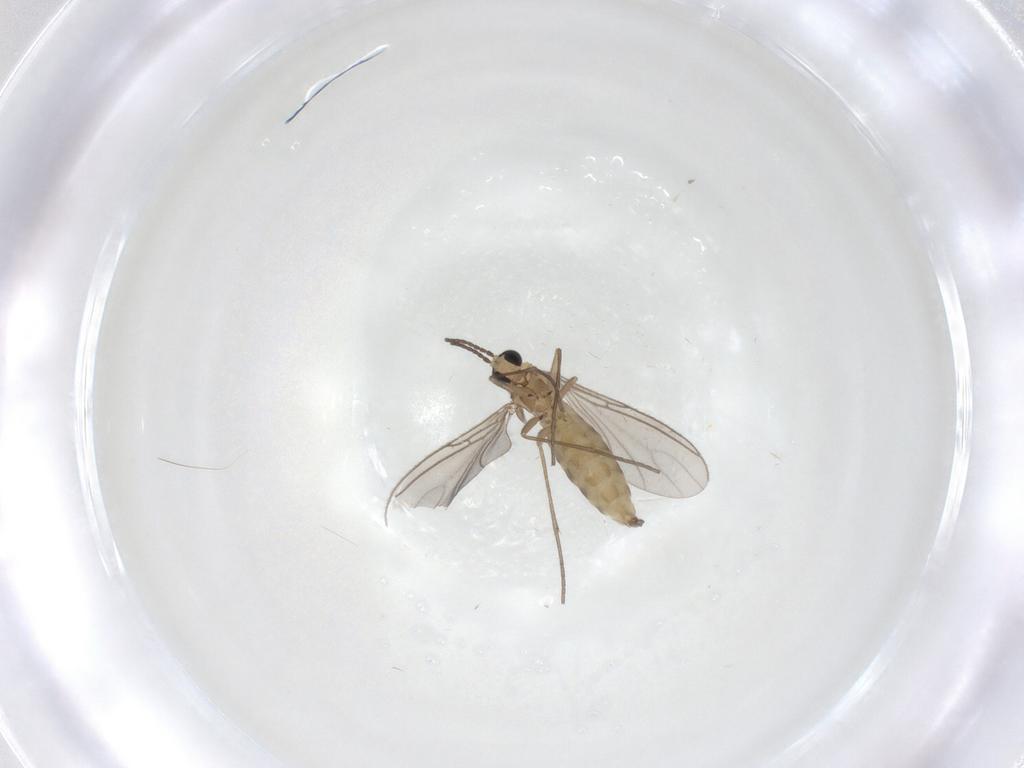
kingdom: Animalia
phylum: Arthropoda
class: Insecta
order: Diptera
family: Sciaridae
